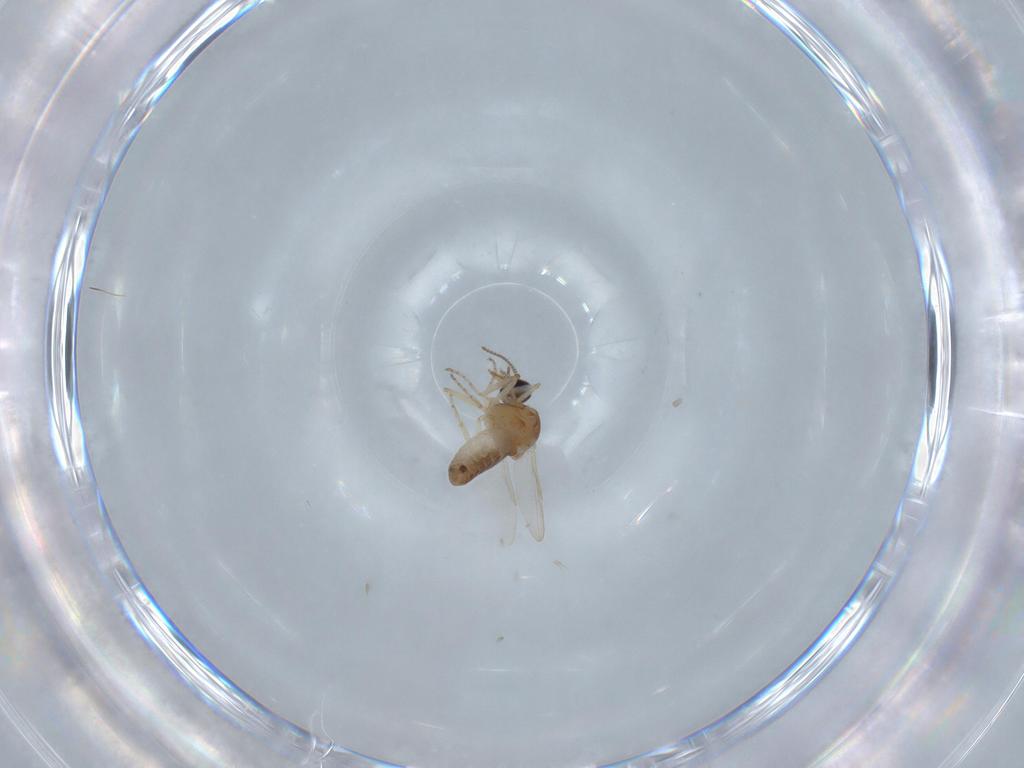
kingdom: Animalia
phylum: Arthropoda
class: Insecta
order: Diptera
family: Ceratopogonidae
